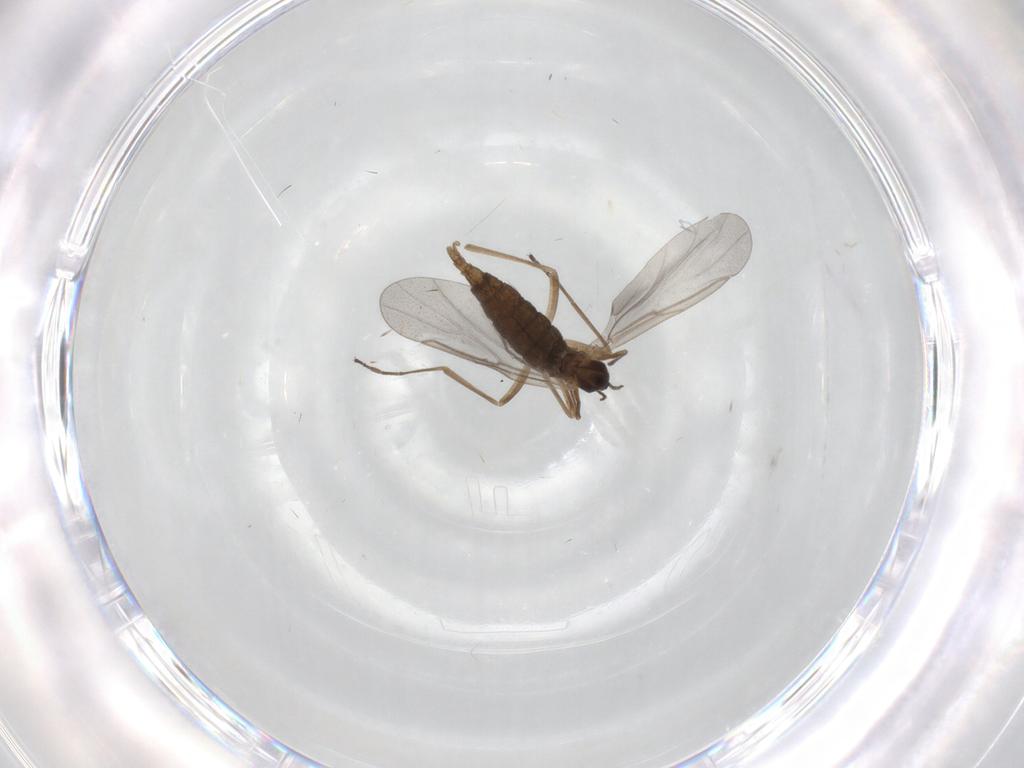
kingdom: Animalia
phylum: Arthropoda
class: Insecta
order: Diptera
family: Cecidomyiidae
